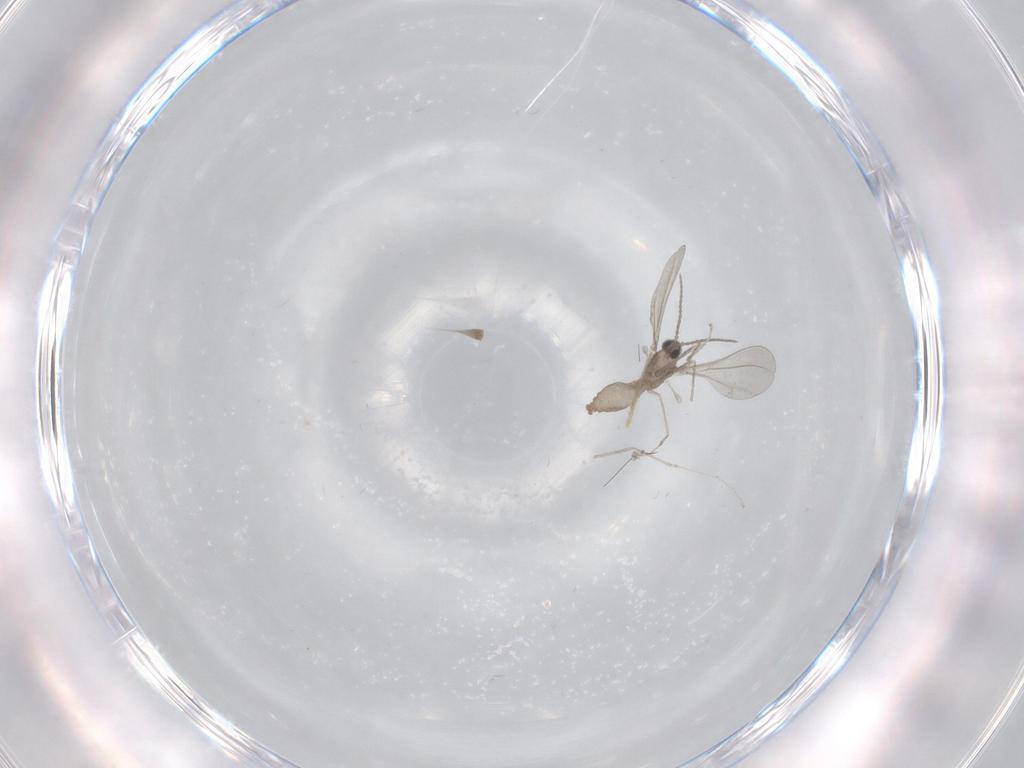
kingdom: Animalia
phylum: Arthropoda
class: Insecta
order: Diptera
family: Cecidomyiidae
